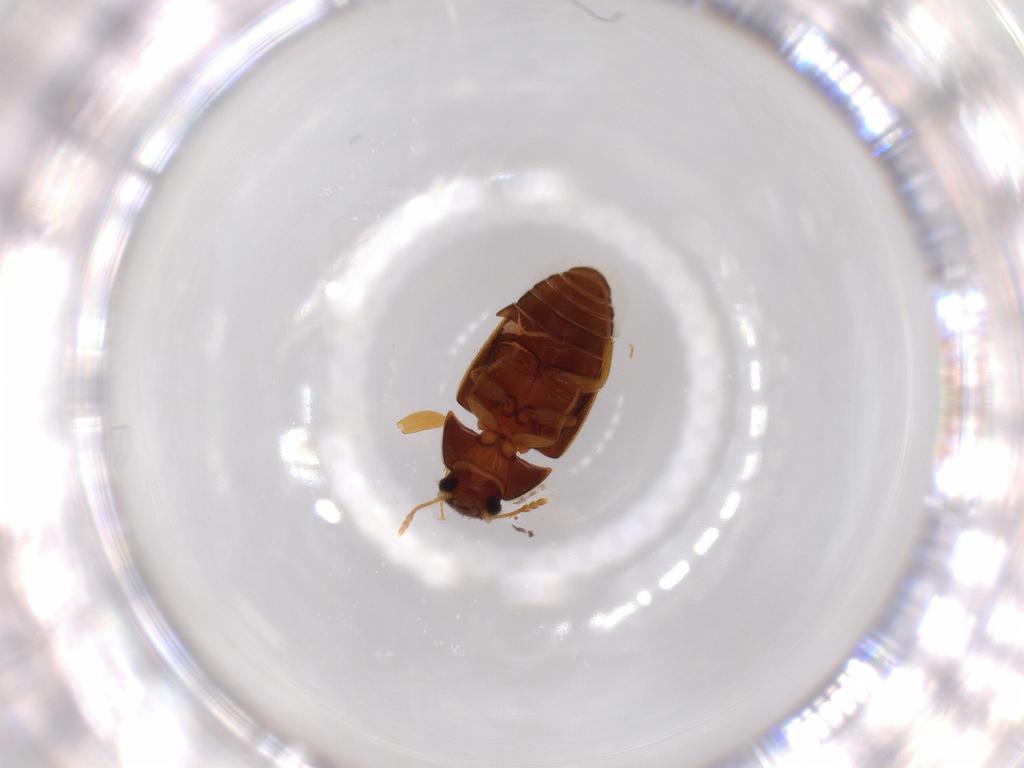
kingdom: Animalia
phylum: Arthropoda
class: Insecta
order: Coleoptera
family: Mycetophagidae
